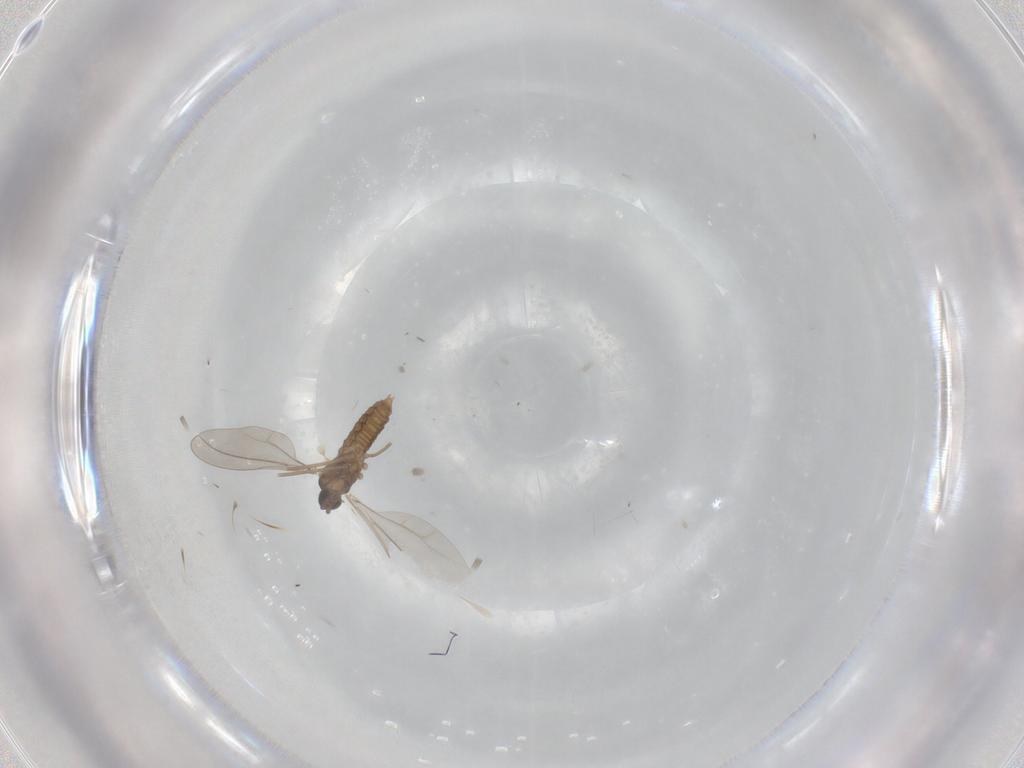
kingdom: Animalia
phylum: Arthropoda
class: Insecta
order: Diptera
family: Cecidomyiidae
